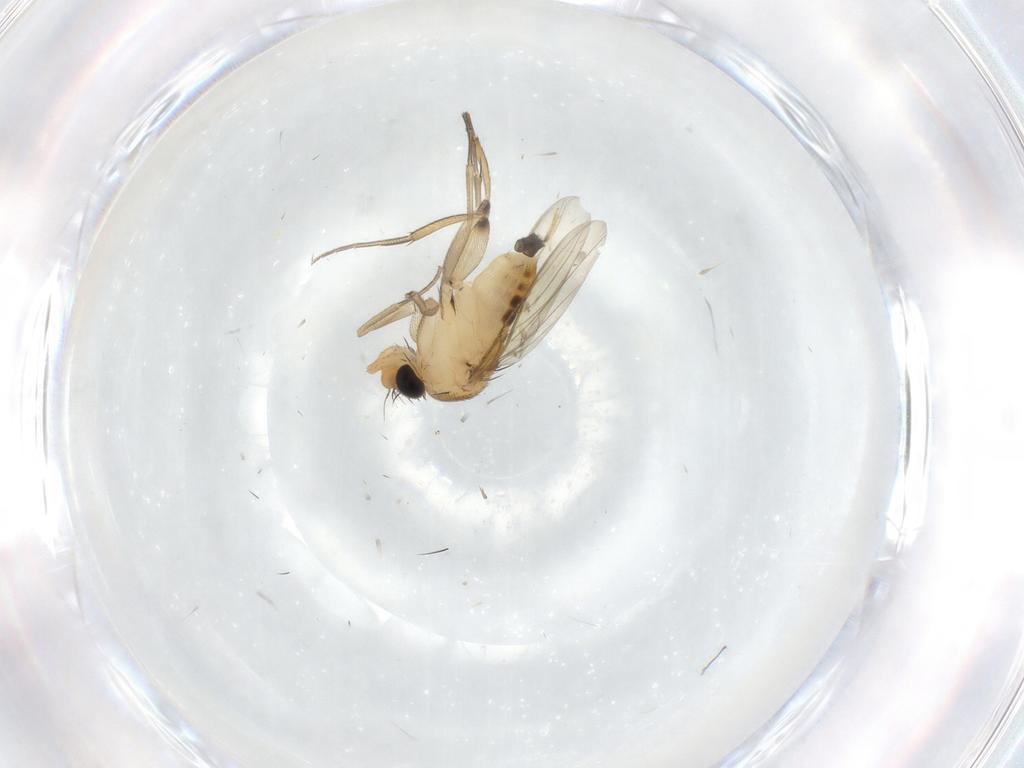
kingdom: Animalia
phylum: Arthropoda
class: Insecta
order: Diptera
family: Phoridae
